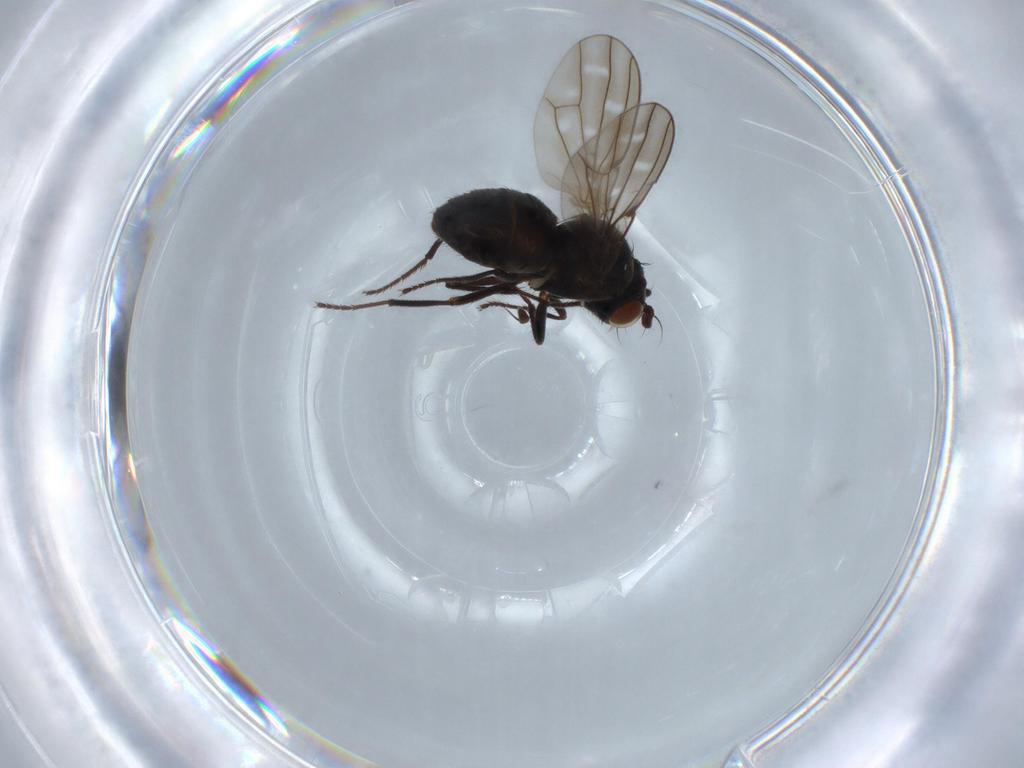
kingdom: Animalia
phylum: Arthropoda
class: Insecta
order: Diptera
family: Ephydridae
